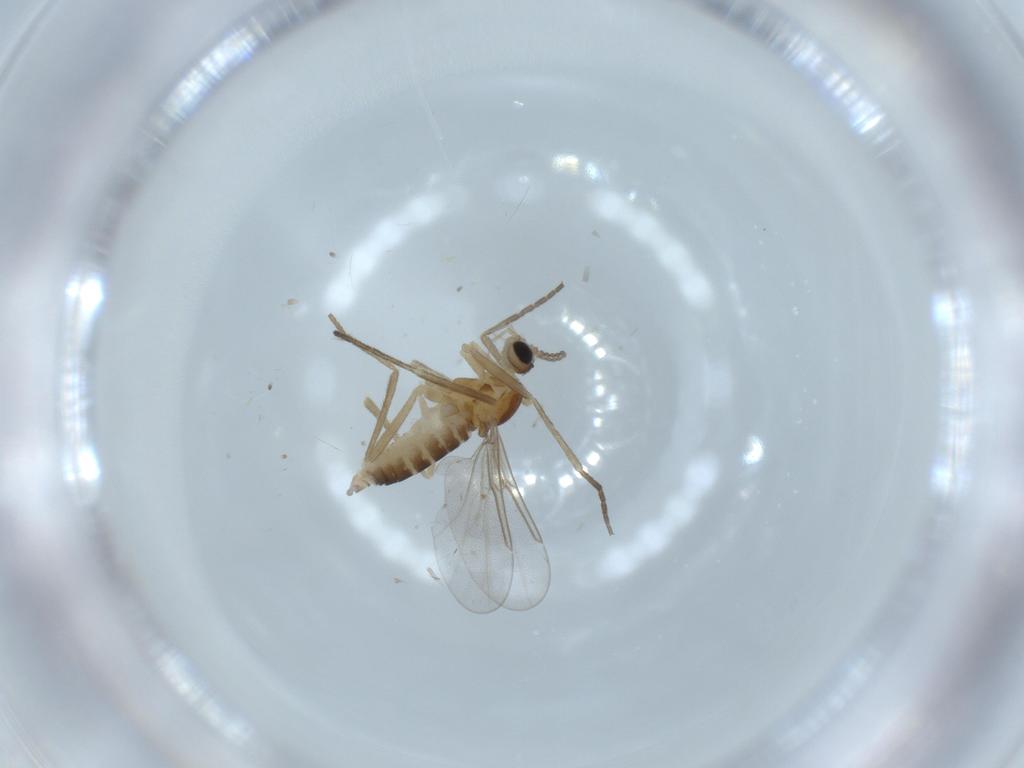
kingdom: Animalia
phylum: Arthropoda
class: Insecta
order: Diptera
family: Cecidomyiidae
